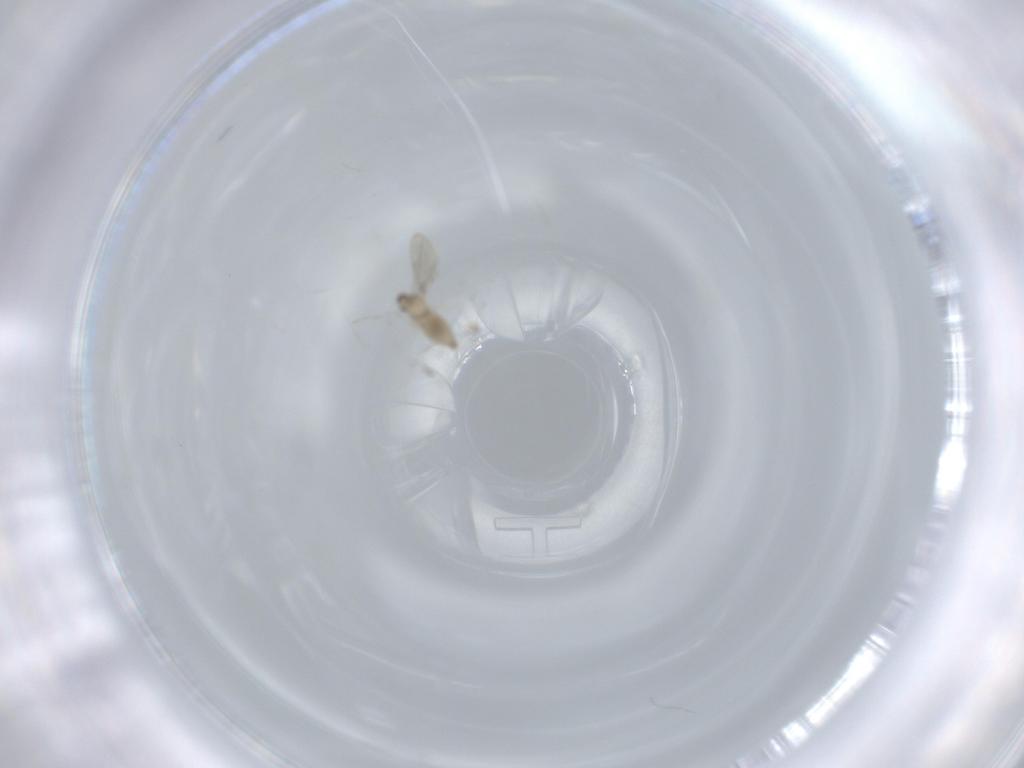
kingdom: Animalia
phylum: Arthropoda
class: Insecta
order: Diptera
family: Cecidomyiidae
